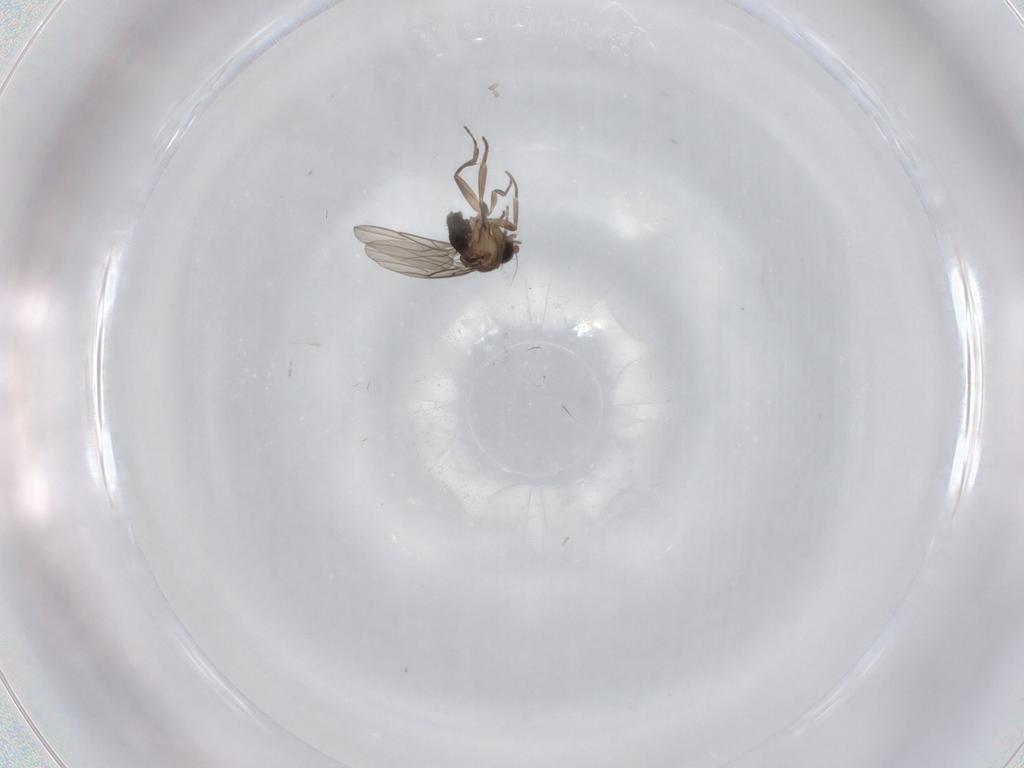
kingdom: Animalia
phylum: Arthropoda
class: Insecta
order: Diptera
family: Phoridae
